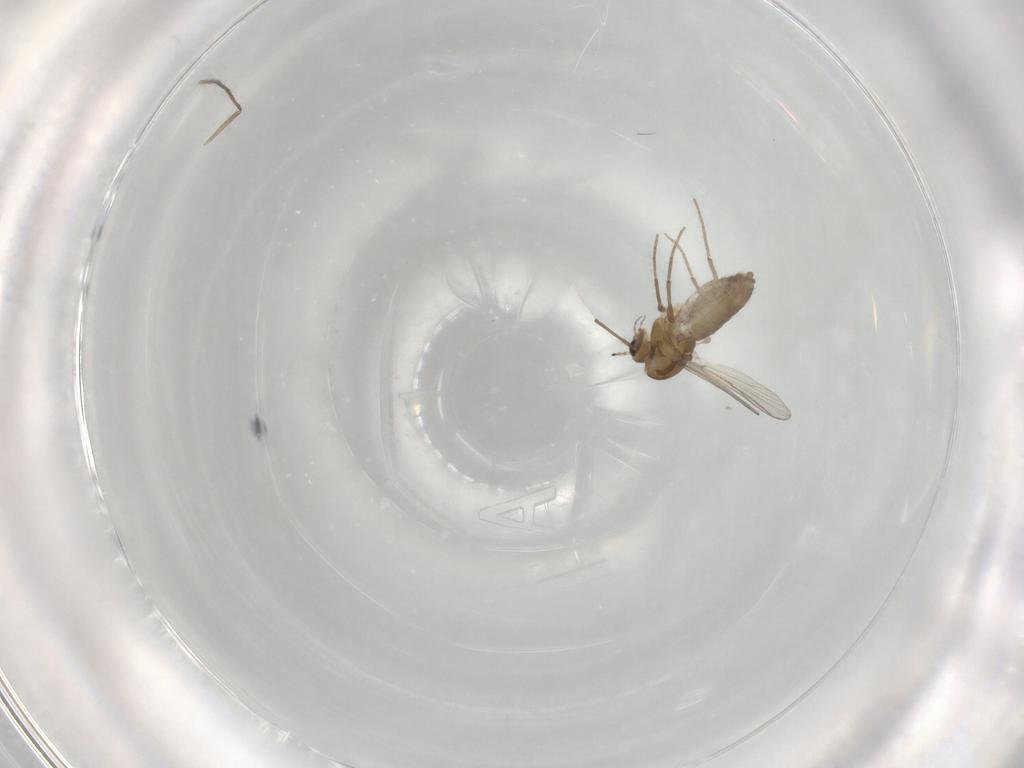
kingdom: Animalia
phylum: Arthropoda
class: Insecta
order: Diptera
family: Chironomidae
